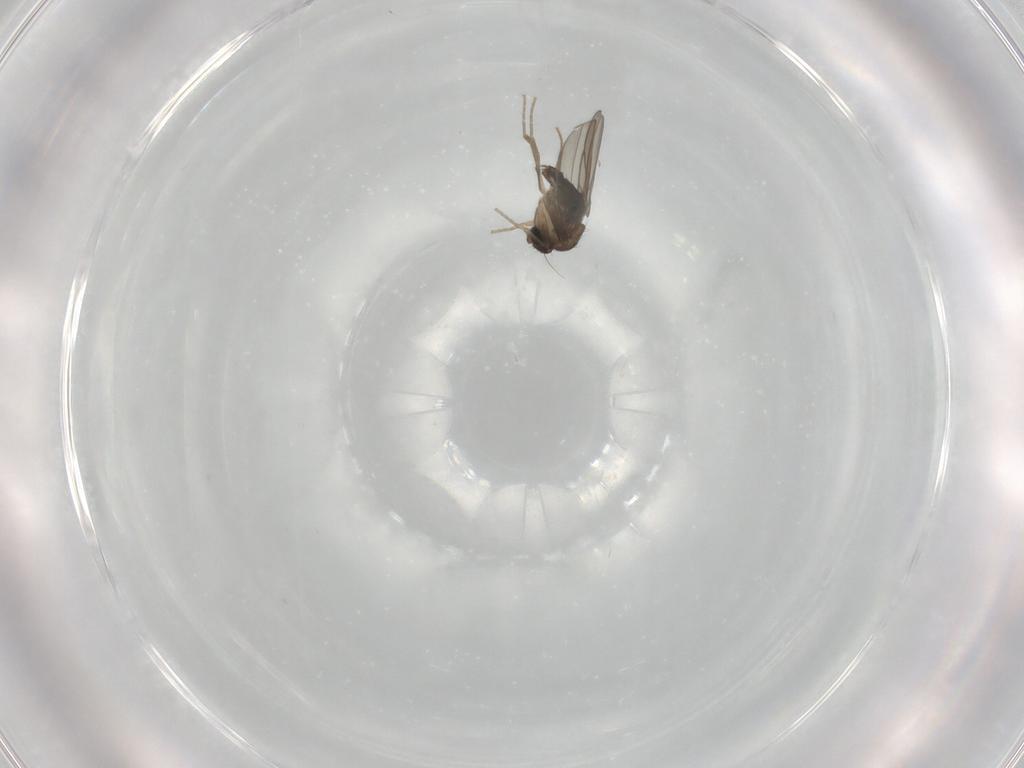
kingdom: Animalia
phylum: Arthropoda
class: Insecta
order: Diptera
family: Phoridae
